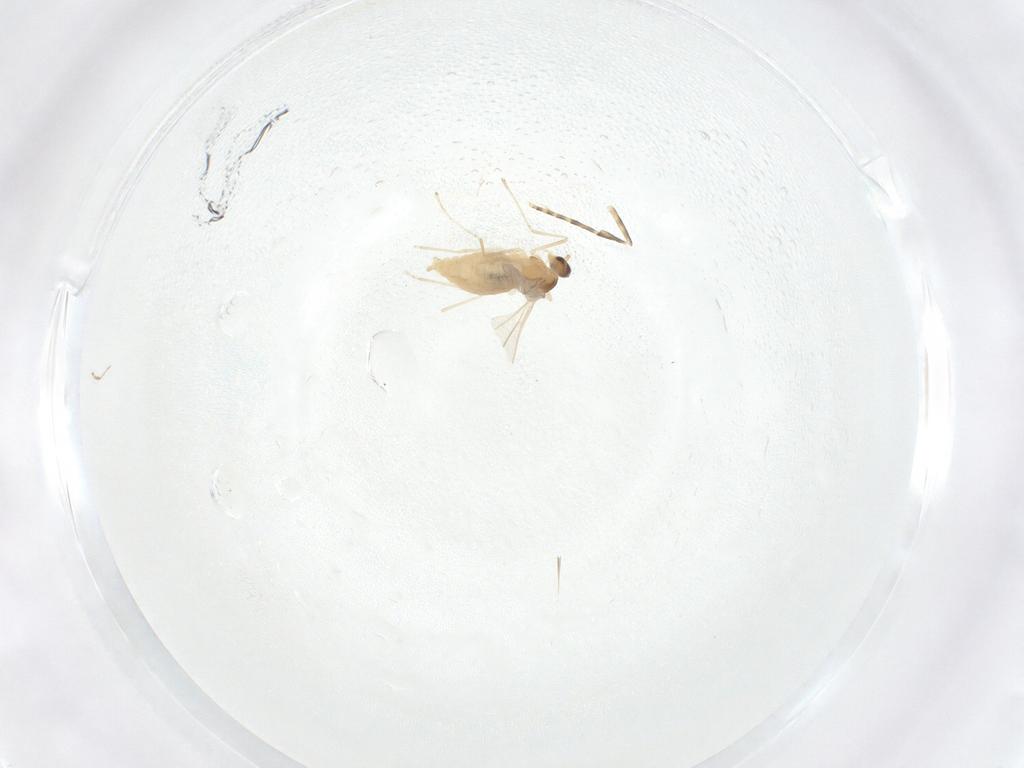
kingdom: Animalia
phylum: Arthropoda
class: Insecta
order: Diptera
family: Cecidomyiidae
